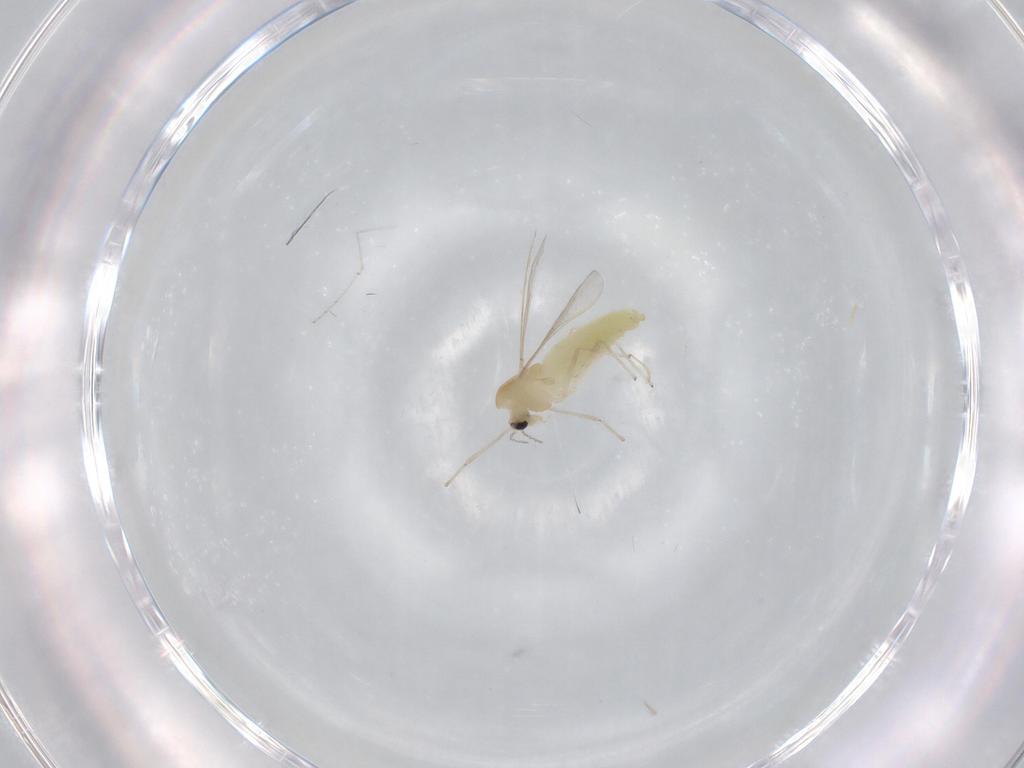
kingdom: Animalia
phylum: Arthropoda
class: Insecta
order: Diptera
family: Chironomidae
